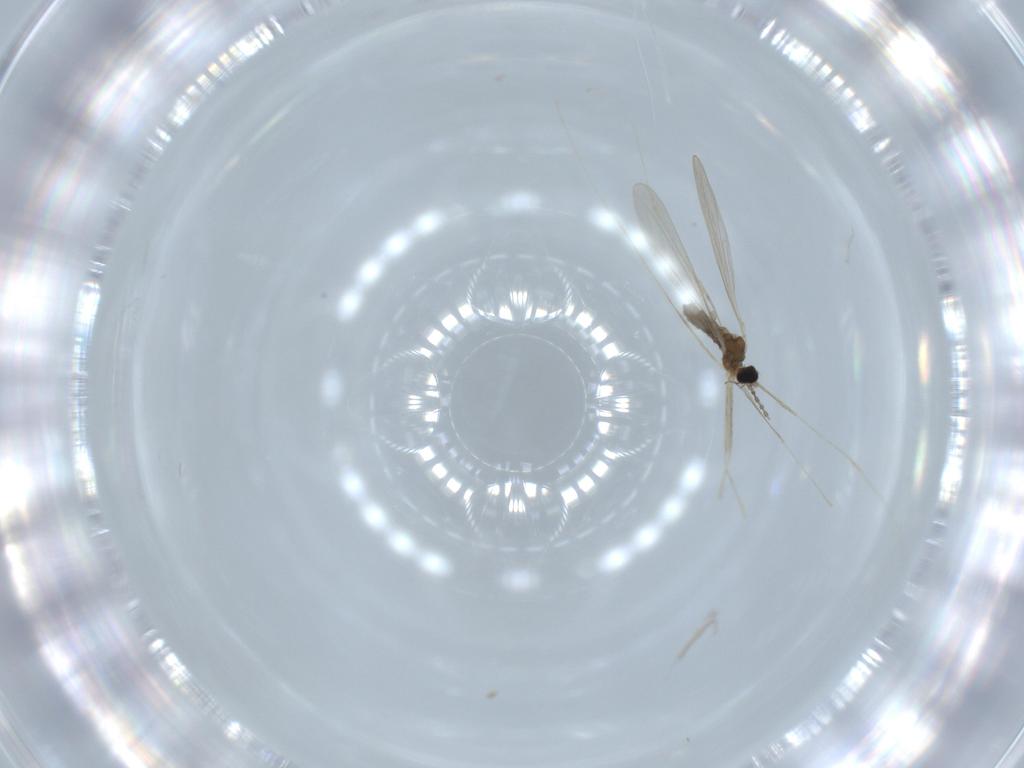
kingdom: Animalia
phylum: Arthropoda
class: Insecta
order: Diptera
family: Cecidomyiidae
